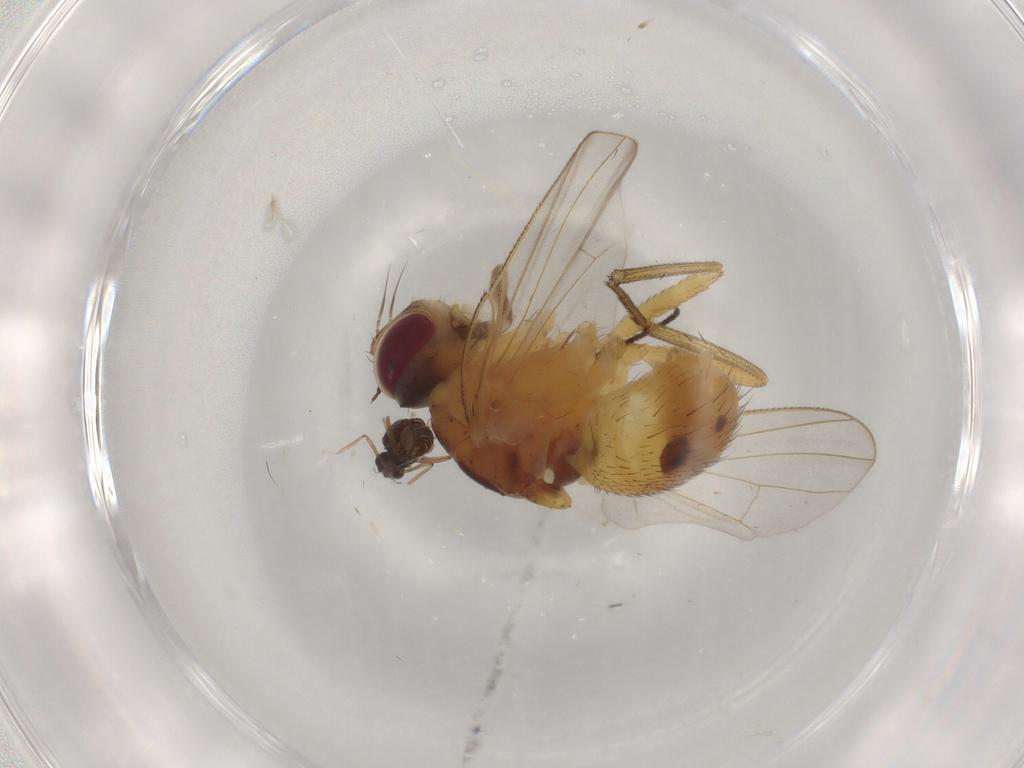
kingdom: Animalia
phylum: Arthropoda
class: Insecta
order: Diptera
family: Muscidae
